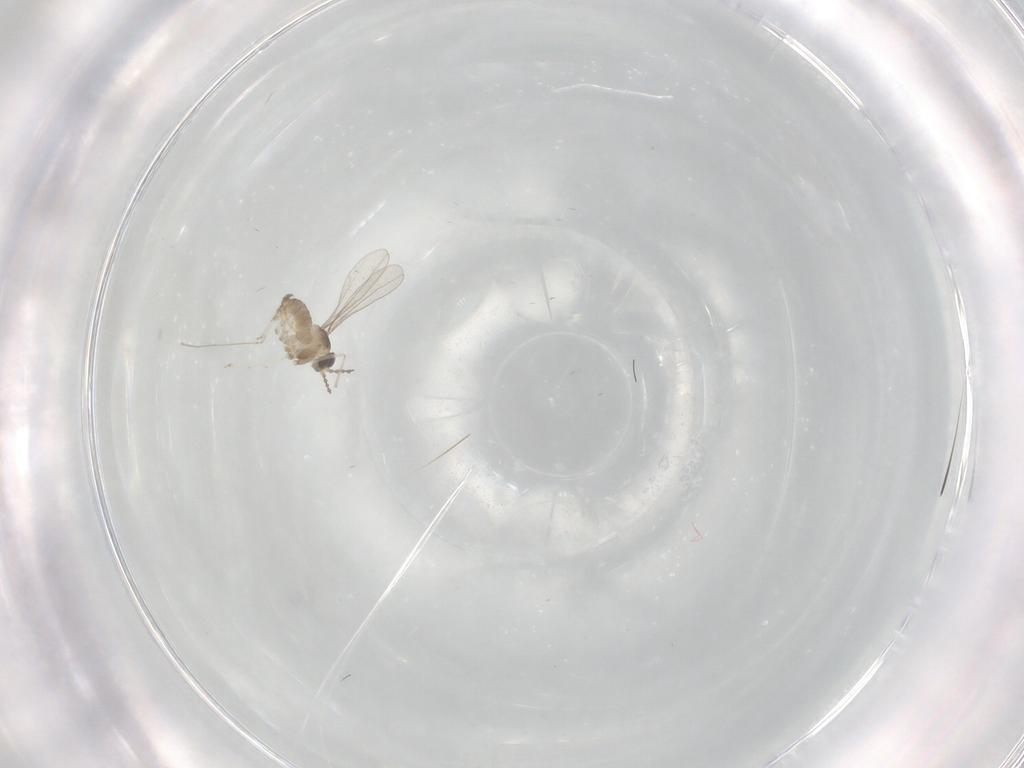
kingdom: Animalia
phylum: Arthropoda
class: Insecta
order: Diptera
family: Cecidomyiidae
